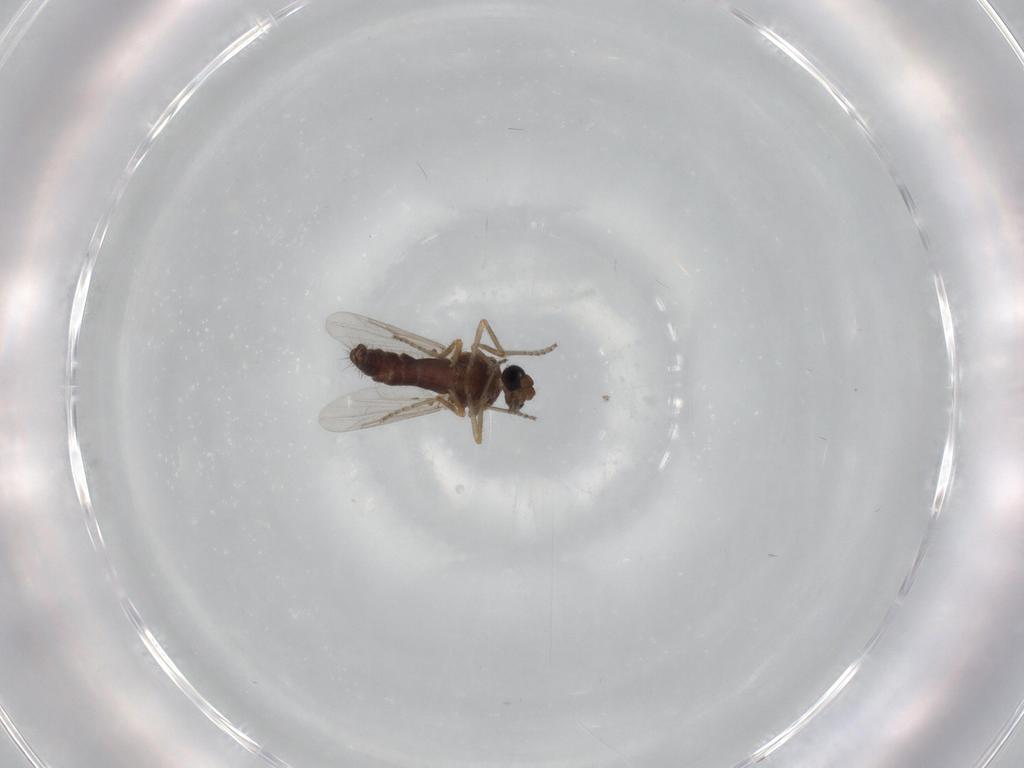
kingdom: Animalia
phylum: Arthropoda
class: Insecta
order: Diptera
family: Ceratopogonidae
